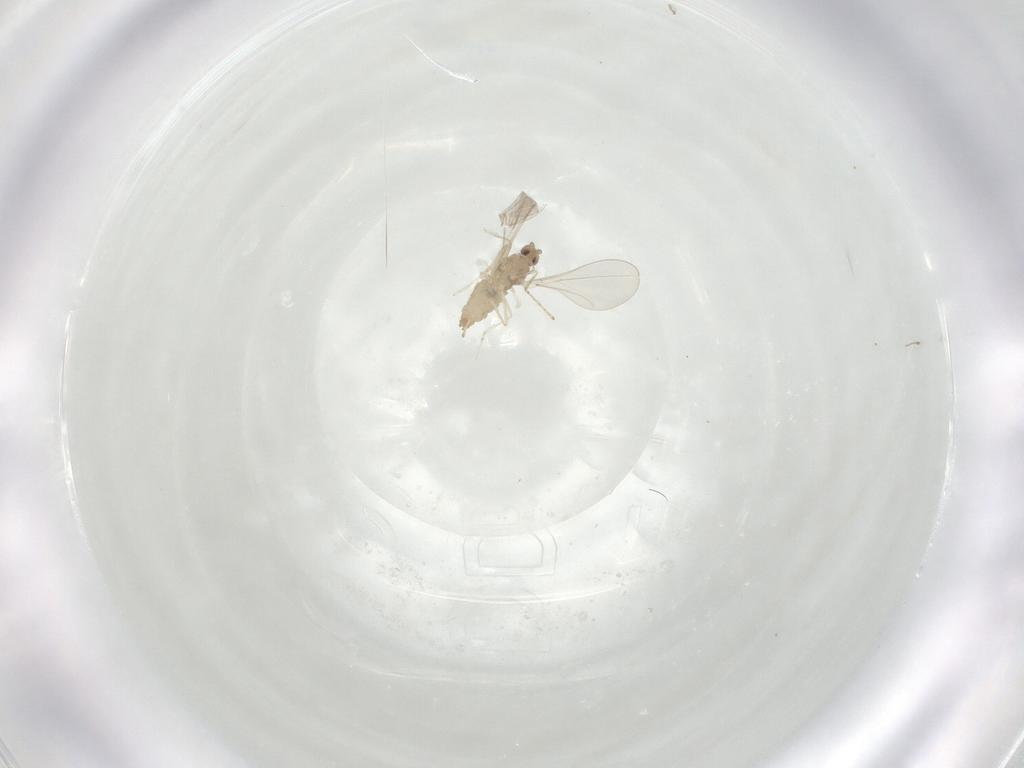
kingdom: Animalia
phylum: Arthropoda
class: Insecta
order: Diptera
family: Cecidomyiidae
